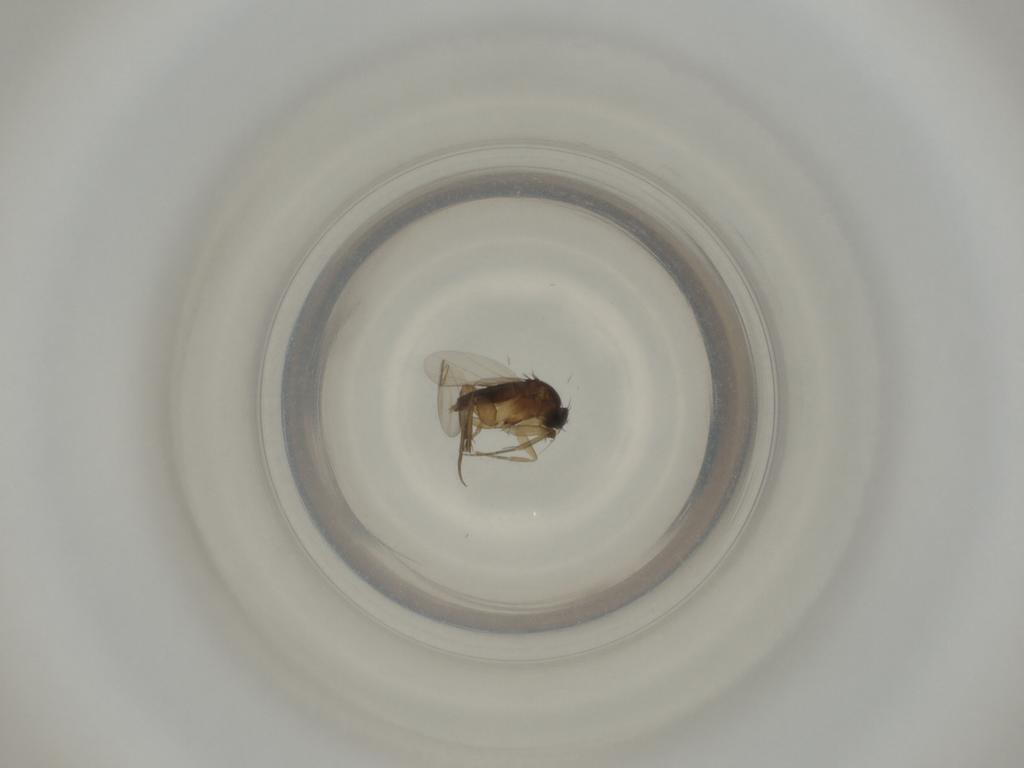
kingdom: Animalia
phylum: Arthropoda
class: Insecta
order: Diptera
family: Phoridae
